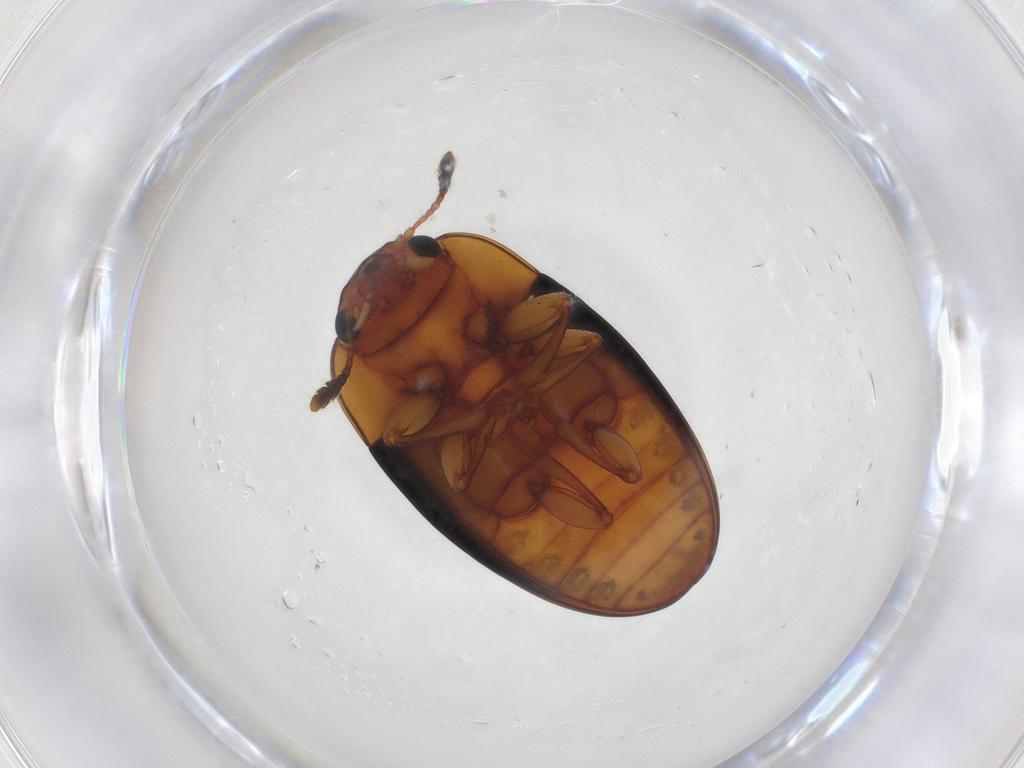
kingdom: Animalia
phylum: Arthropoda
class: Insecta
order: Coleoptera
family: Erotylidae
